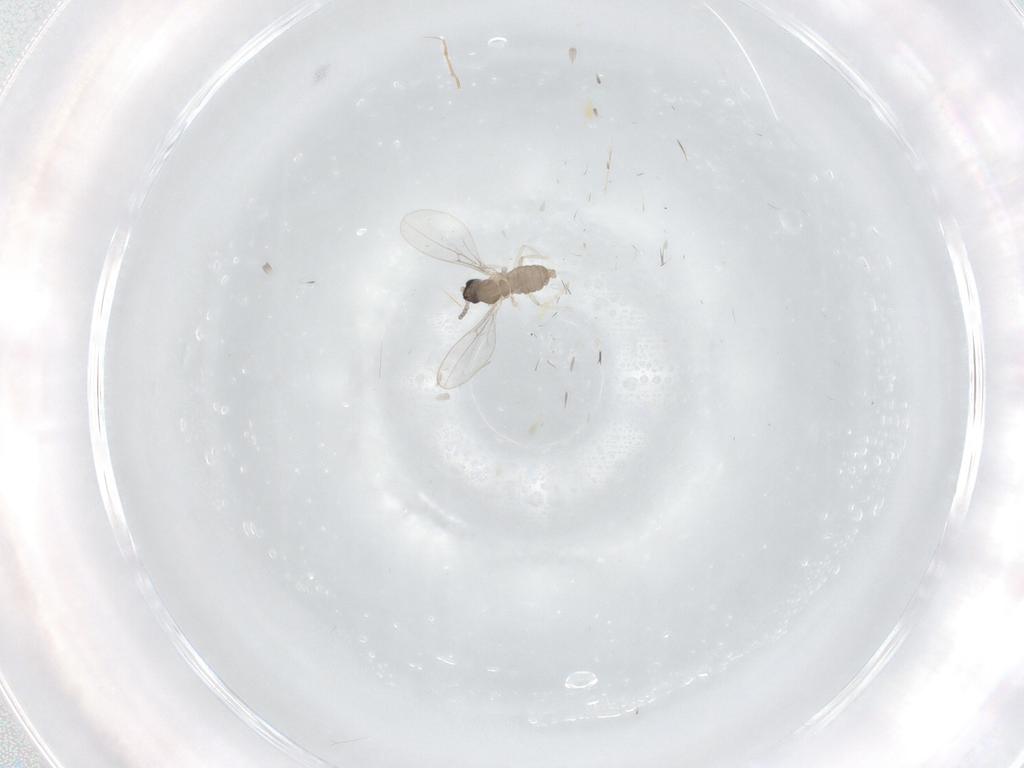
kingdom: Animalia
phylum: Arthropoda
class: Insecta
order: Diptera
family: Cecidomyiidae
